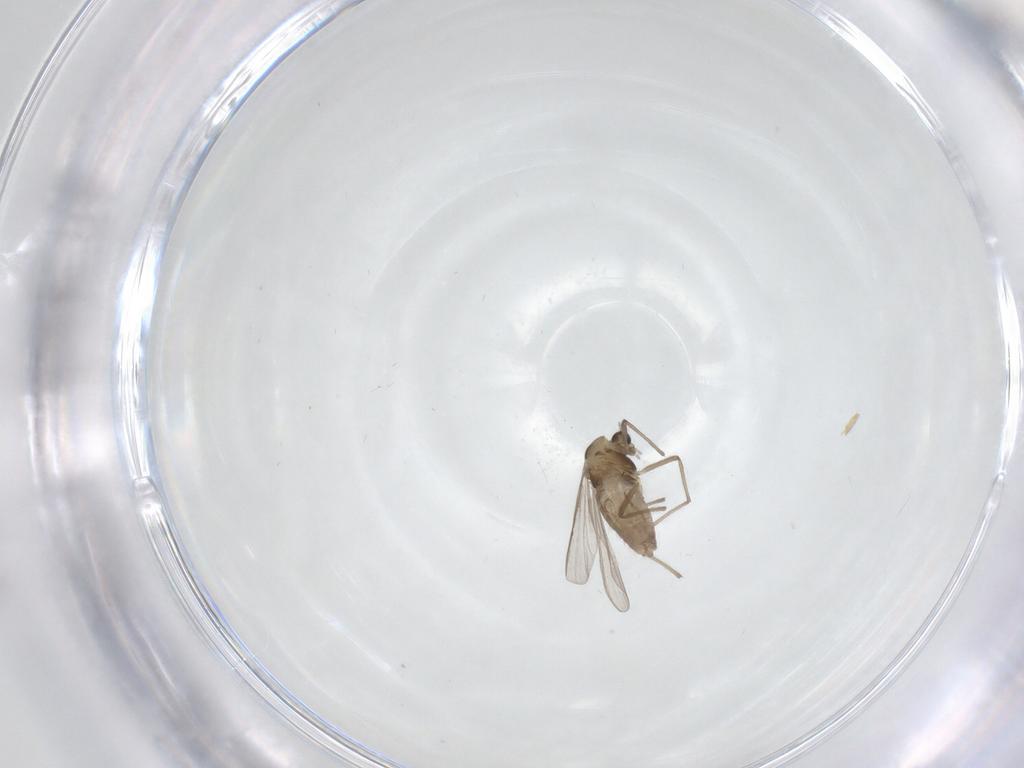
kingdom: Animalia
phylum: Arthropoda
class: Insecta
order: Diptera
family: Chironomidae
